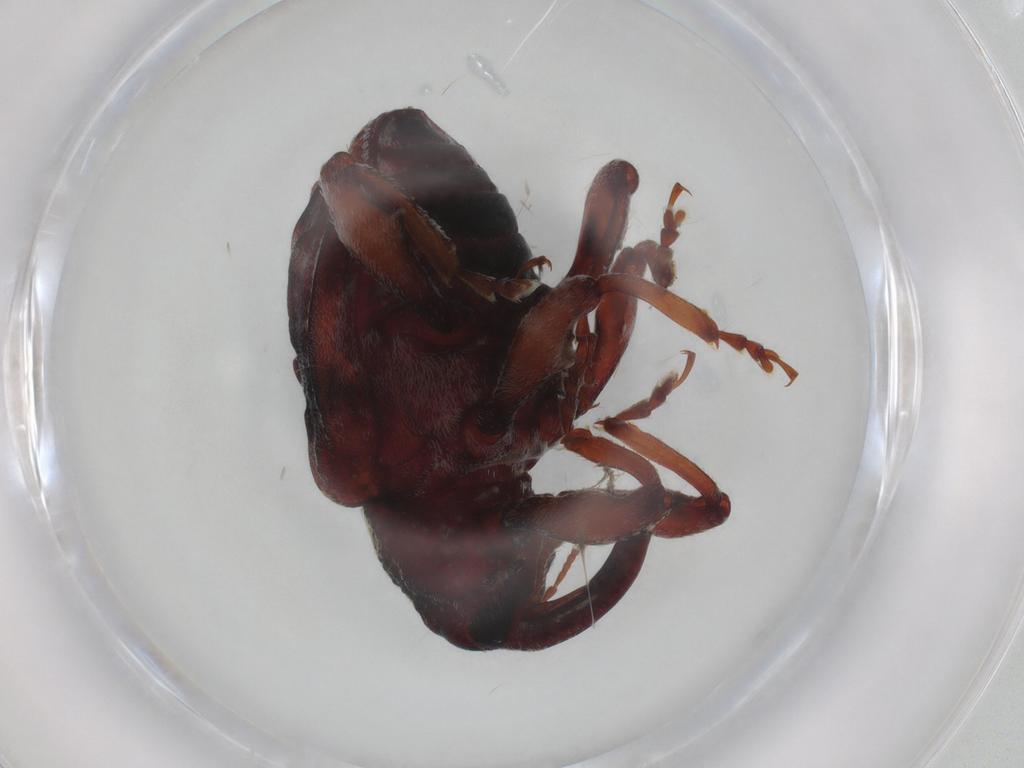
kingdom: Animalia
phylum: Arthropoda
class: Insecta
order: Coleoptera
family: Curculionidae
